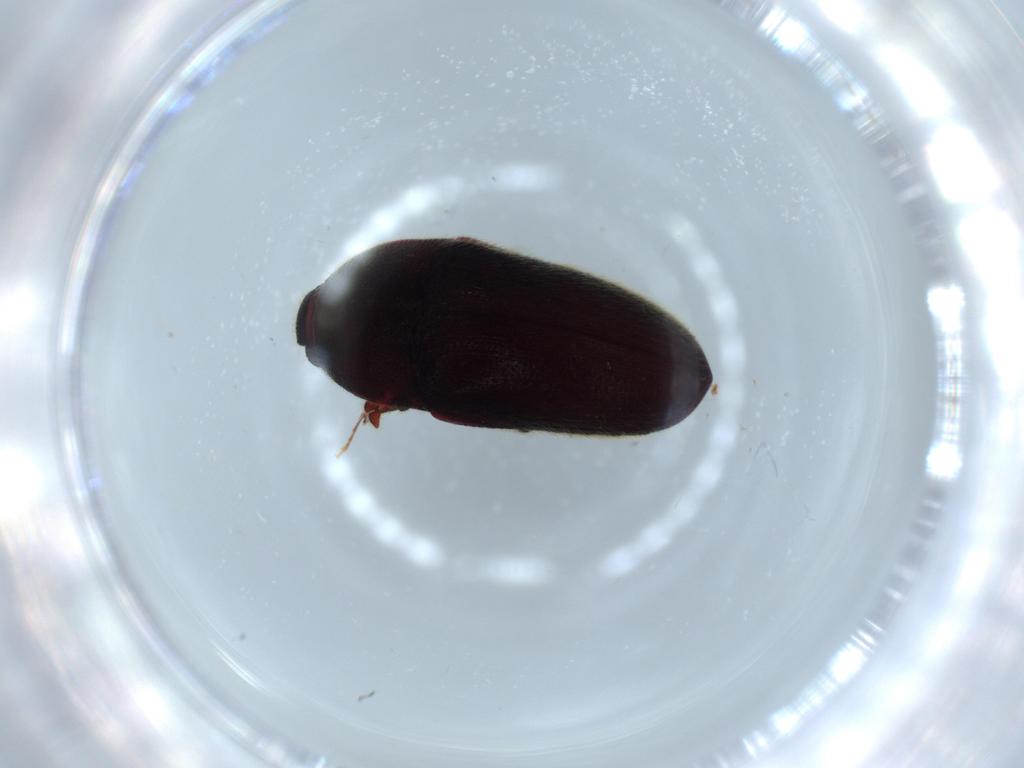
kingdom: Animalia
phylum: Arthropoda
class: Insecta
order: Coleoptera
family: Throscidae
